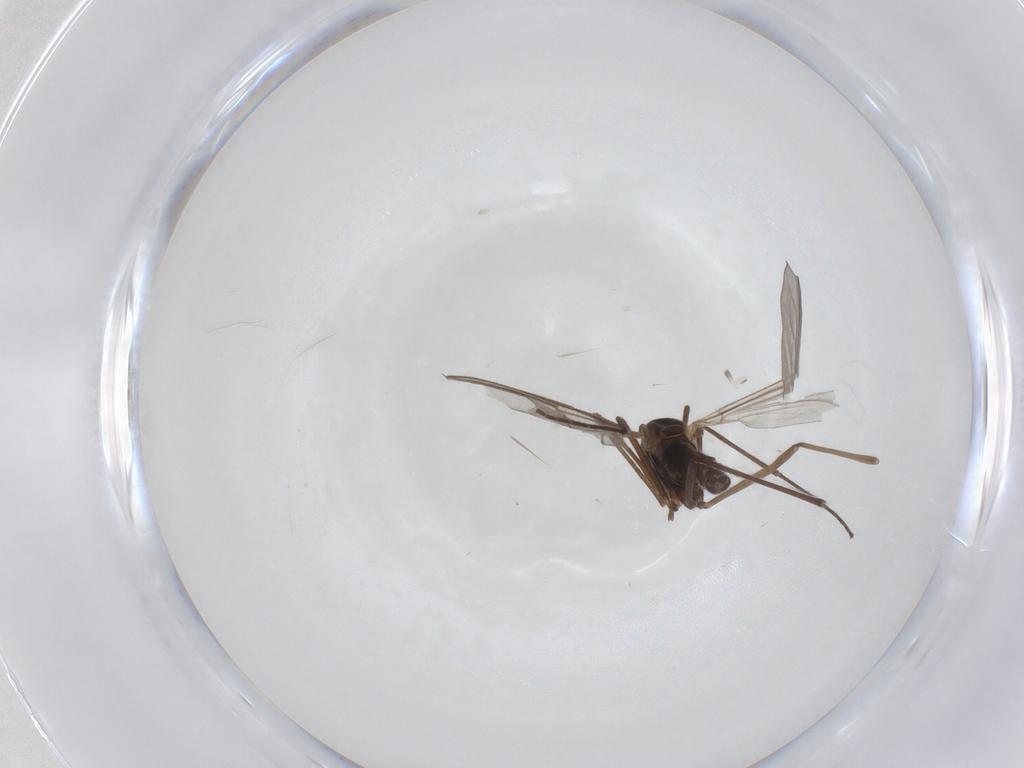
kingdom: Animalia
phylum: Arthropoda
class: Insecta
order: Diptera
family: Cecidomyiidae
